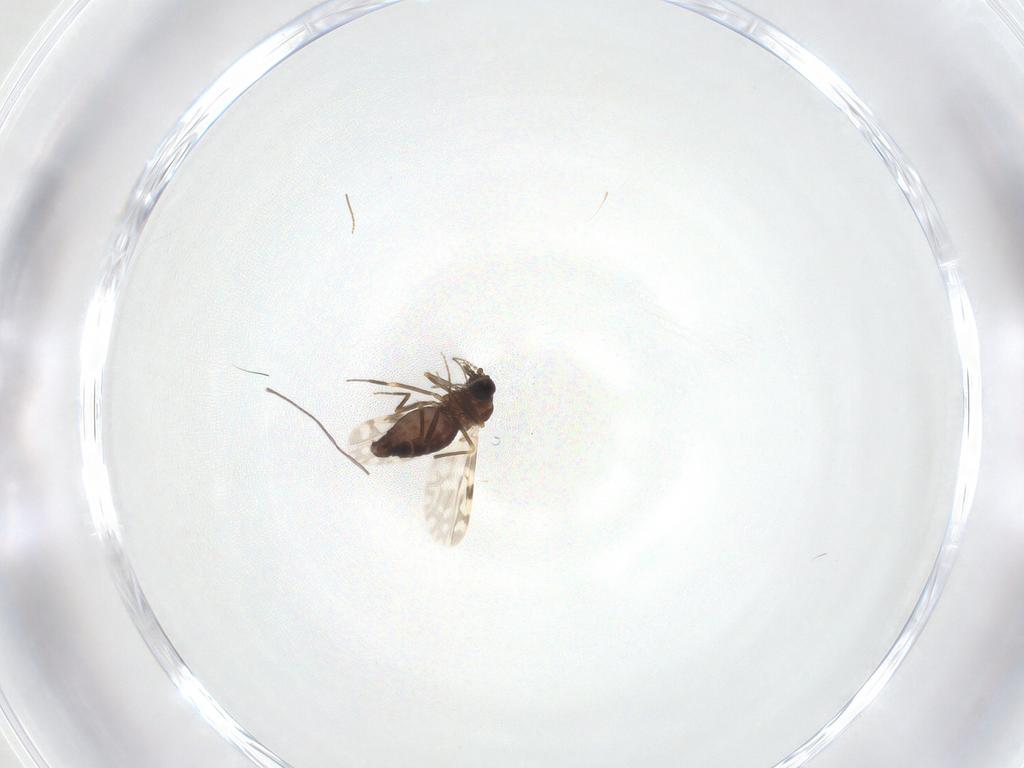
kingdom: Animalia
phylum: Arthropoda
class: Insecta
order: Diptera
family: Ceratopogonidae
